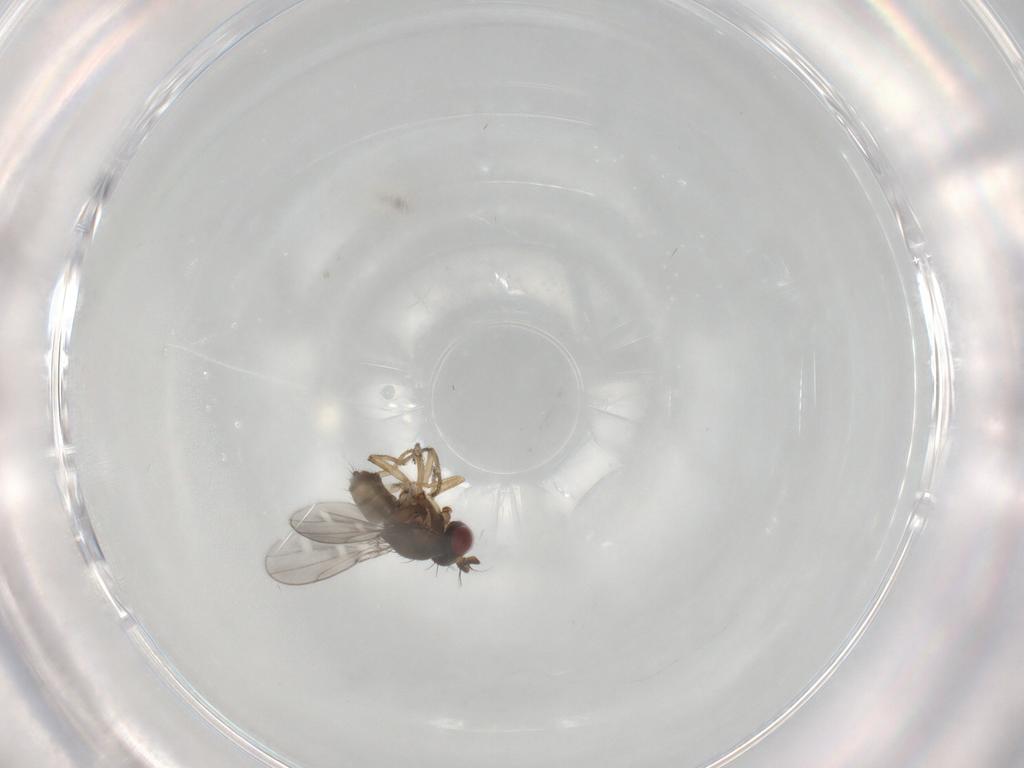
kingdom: Animalia
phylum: Arthropoda
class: Insecta
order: Diptera
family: Ephydridae
